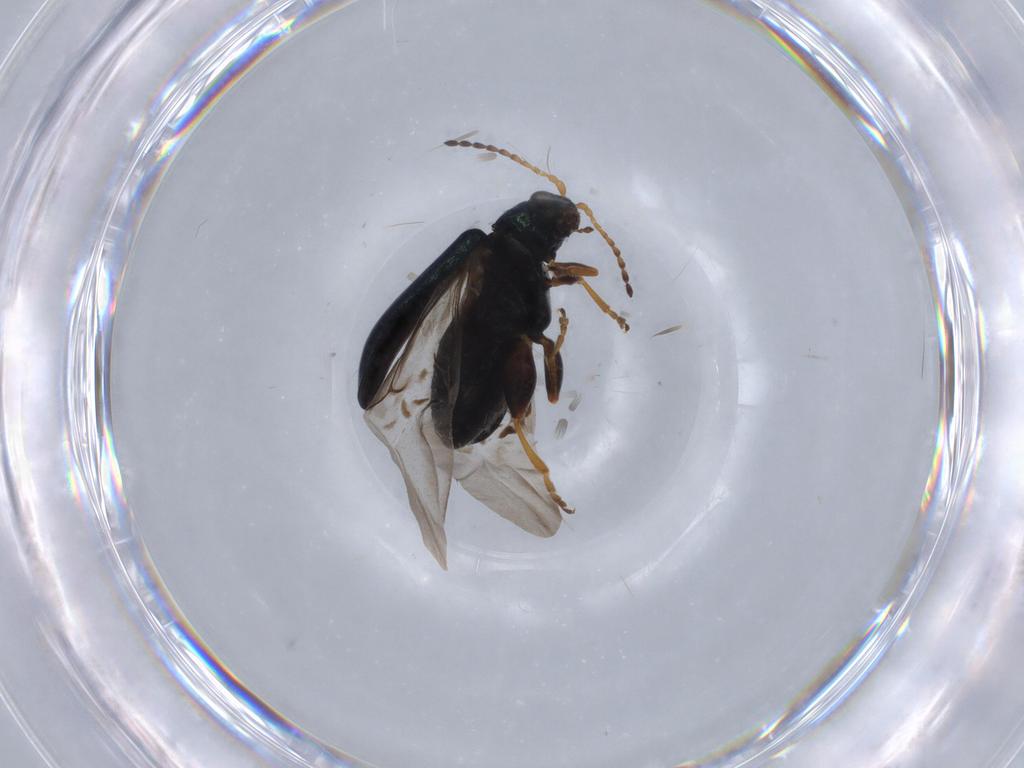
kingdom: Animalia
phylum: Arthropoda
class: Insecta
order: Coleoptera
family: Chrysomelidae
